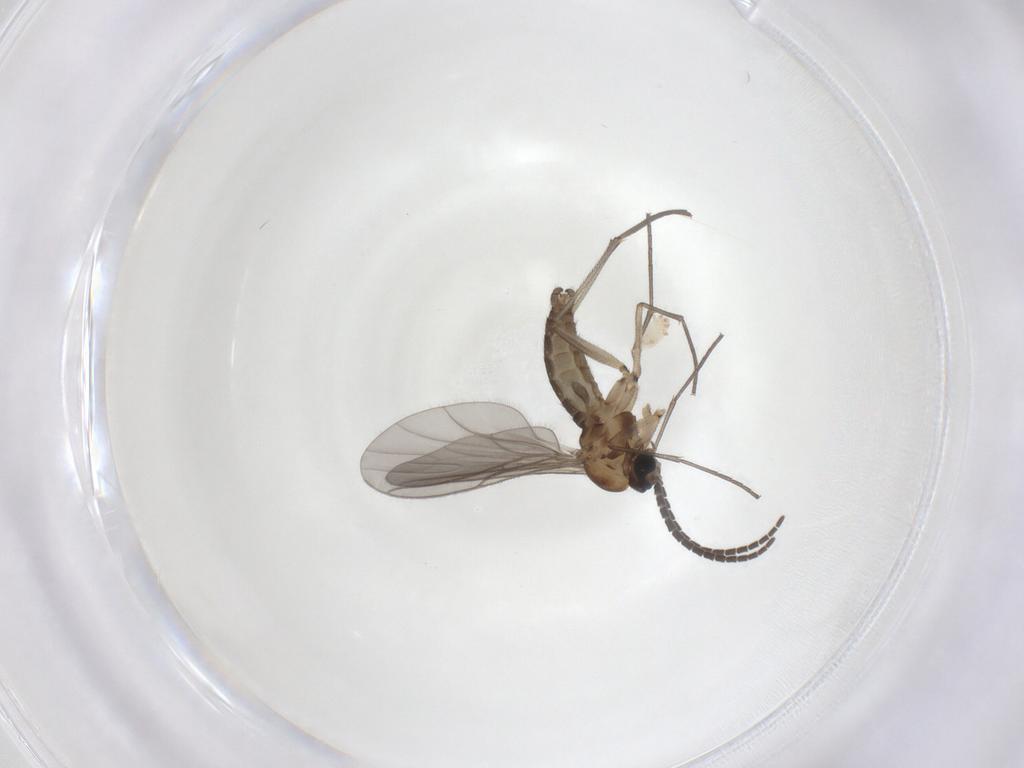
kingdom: Animalia
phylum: Arthropoda
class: Insecta
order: Diptera
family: Sciaridae
